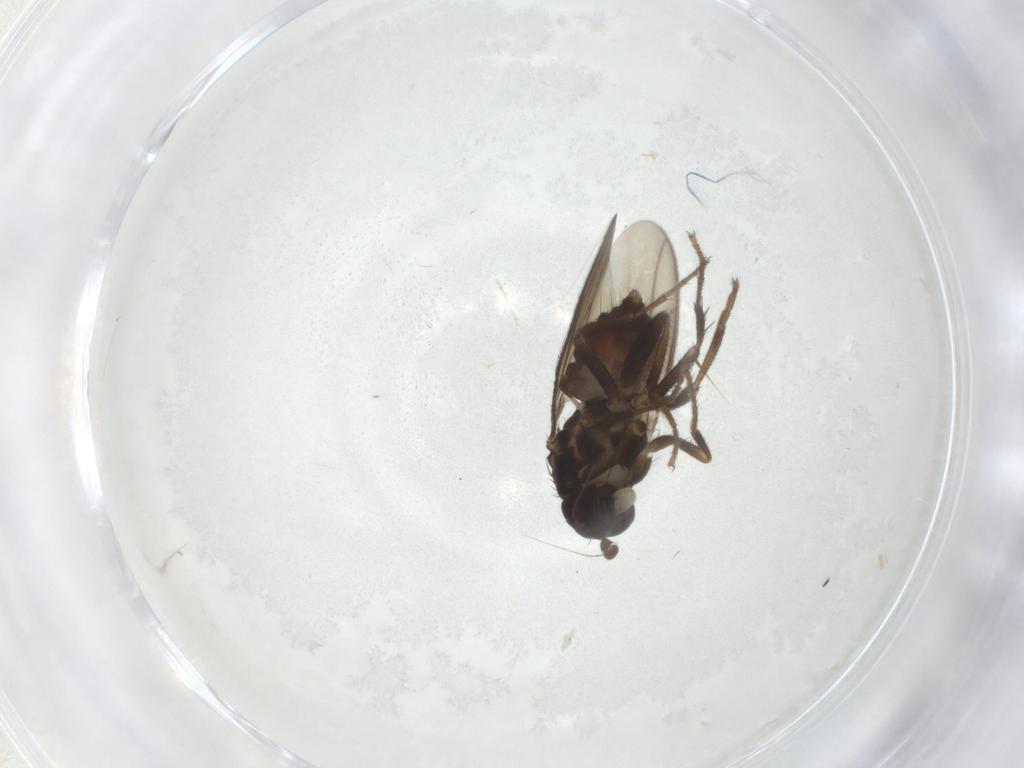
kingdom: Animalia
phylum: Arthropoda
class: Insecta
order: Diptera
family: Sphaeroceridae
